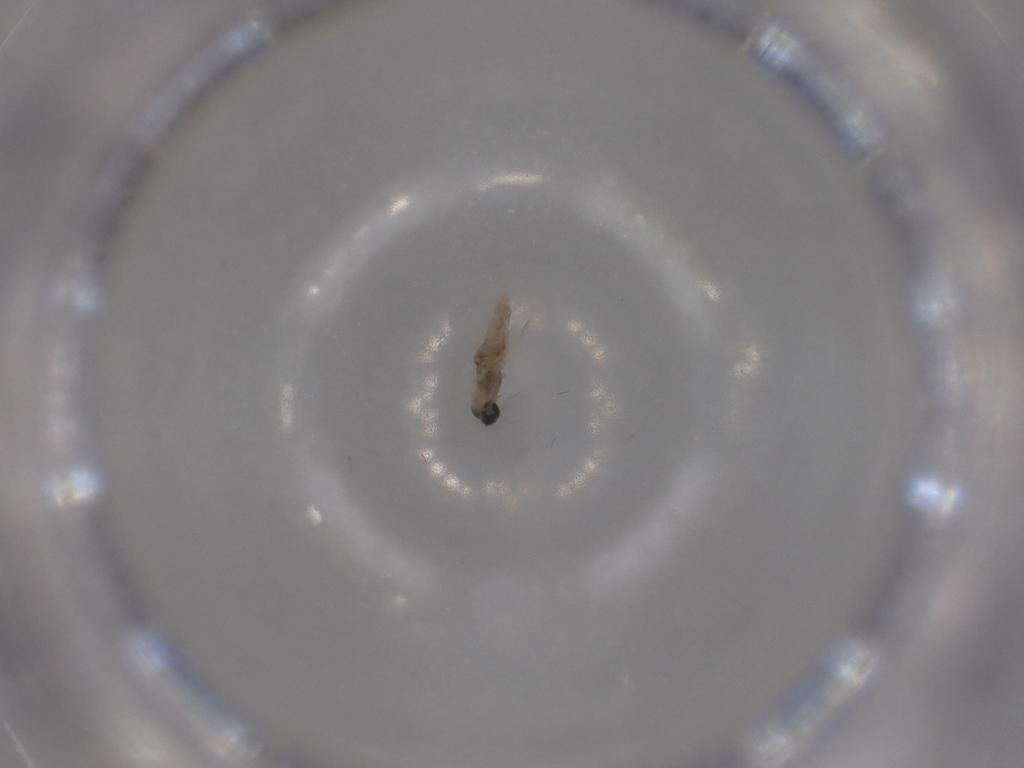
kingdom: Animalia
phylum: Arthropoda
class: Insecta
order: Diptera
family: Cecidomyiidae
